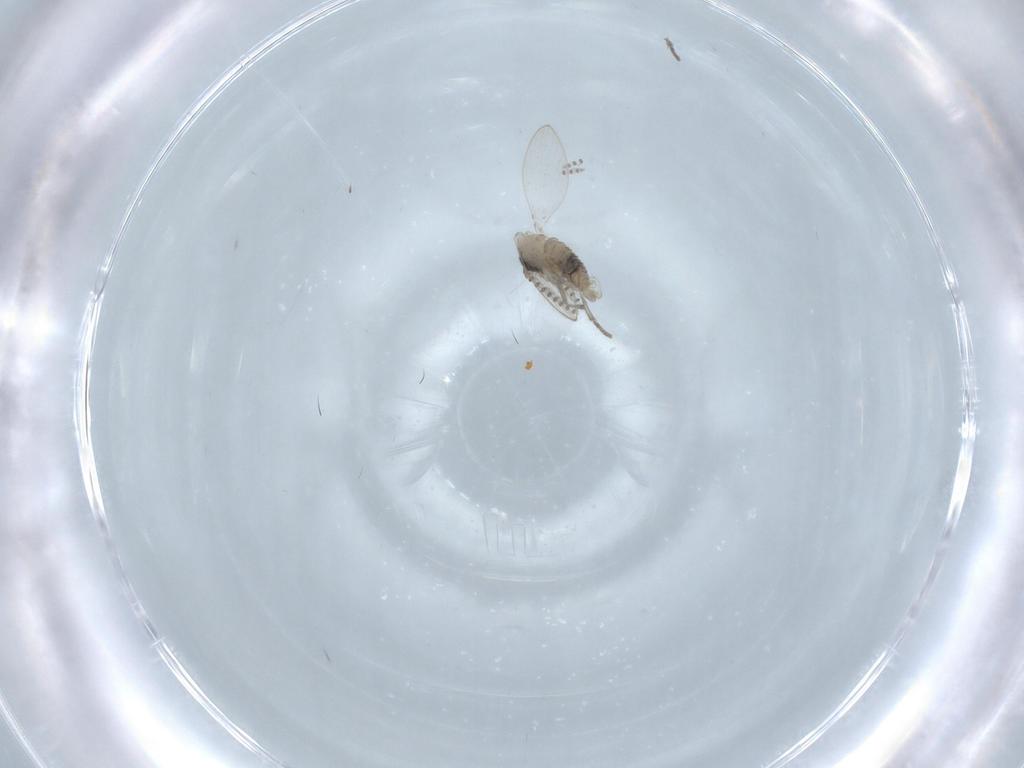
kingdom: Animalia
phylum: Arthropoda
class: Insecta
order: Diptera
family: Psychodidae
